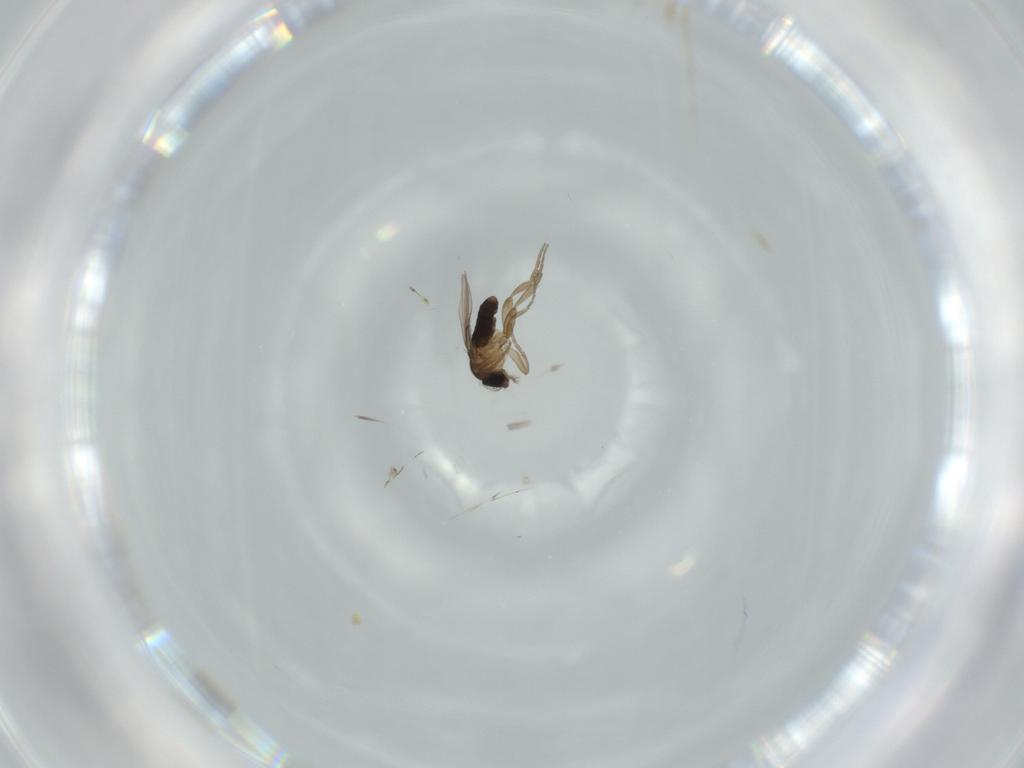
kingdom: Animalia
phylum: Arthropoda
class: Insecta
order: Diptera
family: Phoridae
